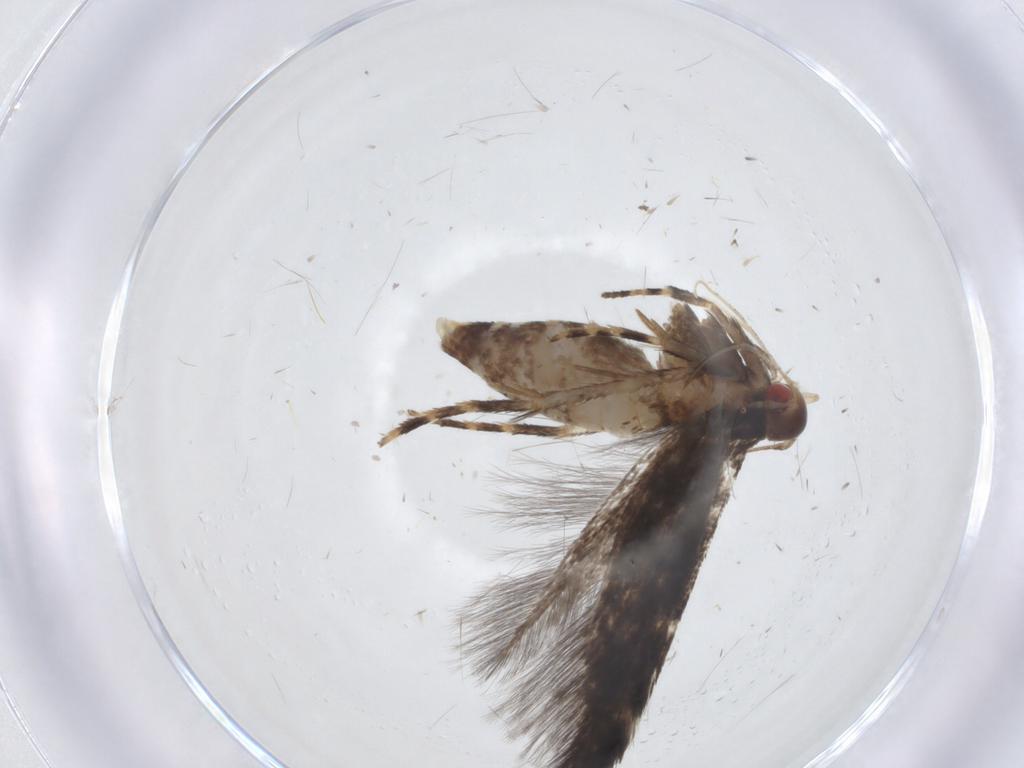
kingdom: Animalia
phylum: Arthropoda
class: Insecta
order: Lepidoptera
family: Cosmopterigidae
